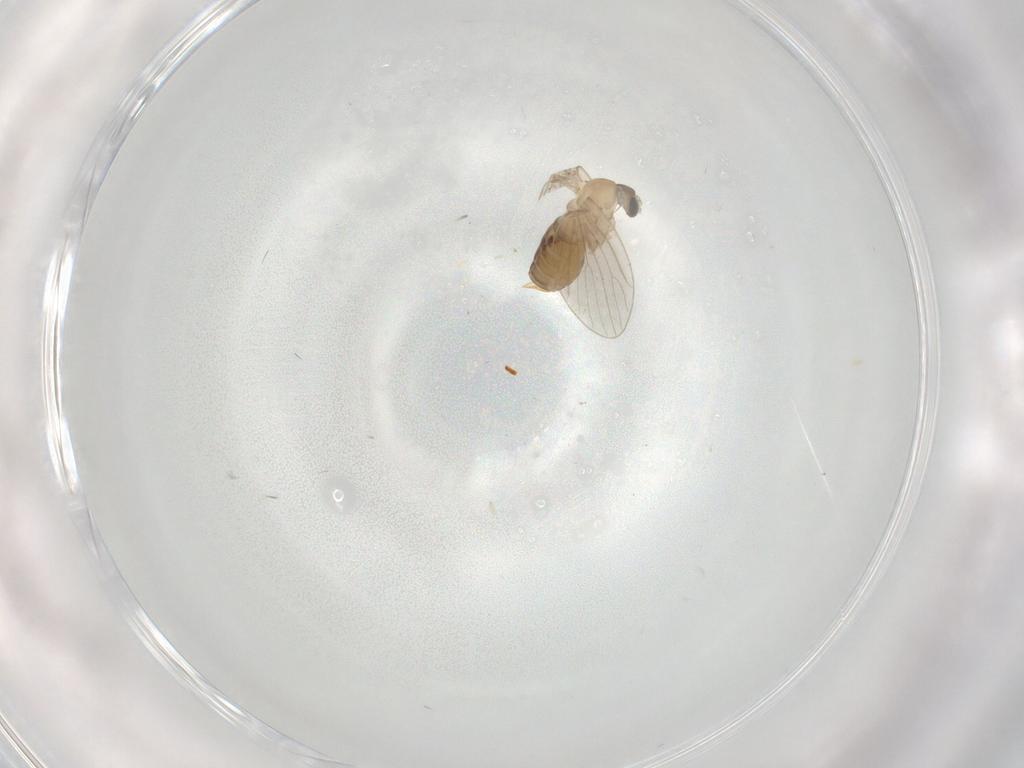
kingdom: Animalia
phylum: Arthropoda
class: Insecta
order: Diptera
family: Psychodidae
